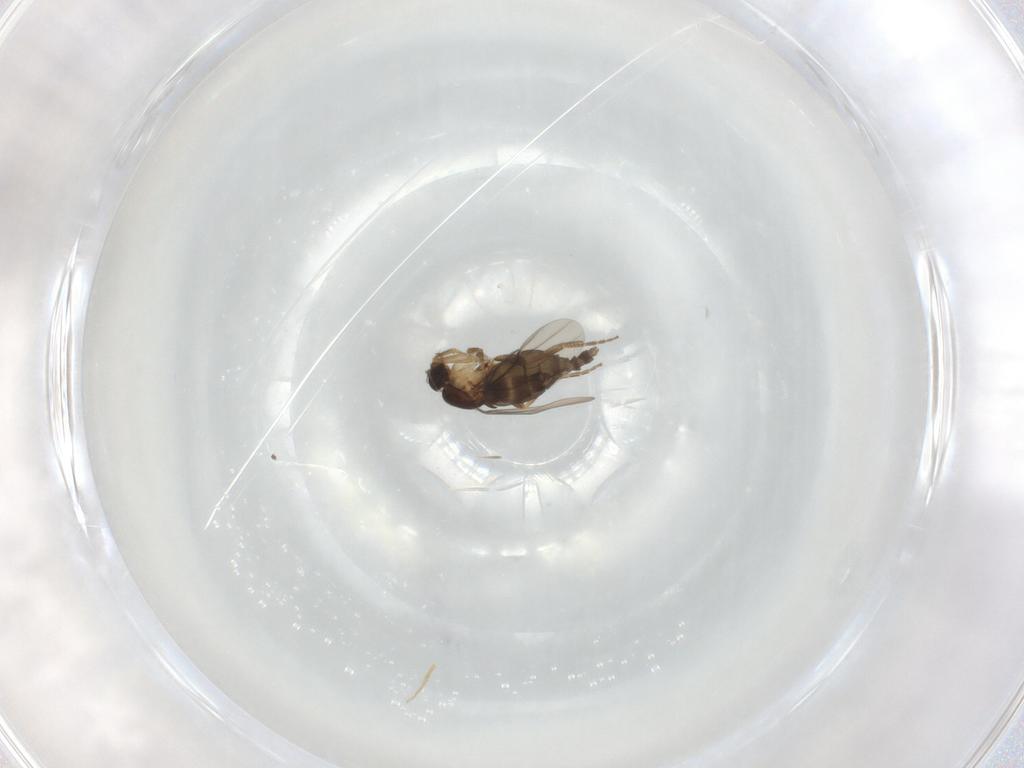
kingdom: Animalia
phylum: Arthropoda
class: Insecta
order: Diptera
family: Phoridae
